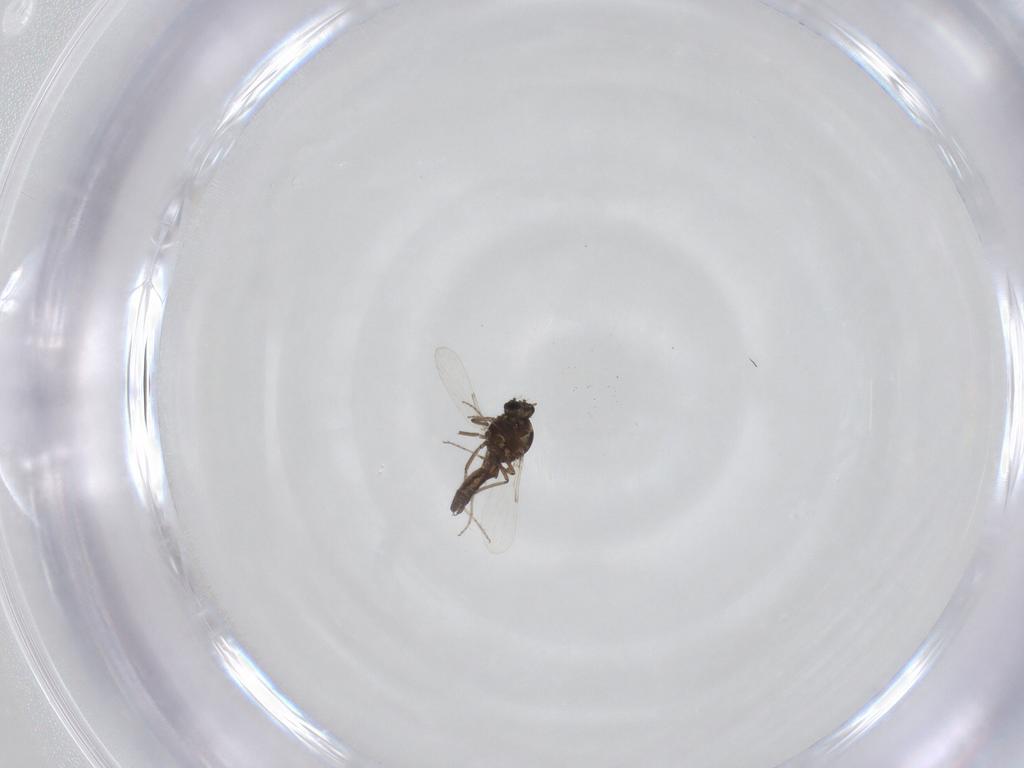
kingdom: Animalia
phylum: Arthropoda
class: Insecta
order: Diptera
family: Ceratopogonidae
